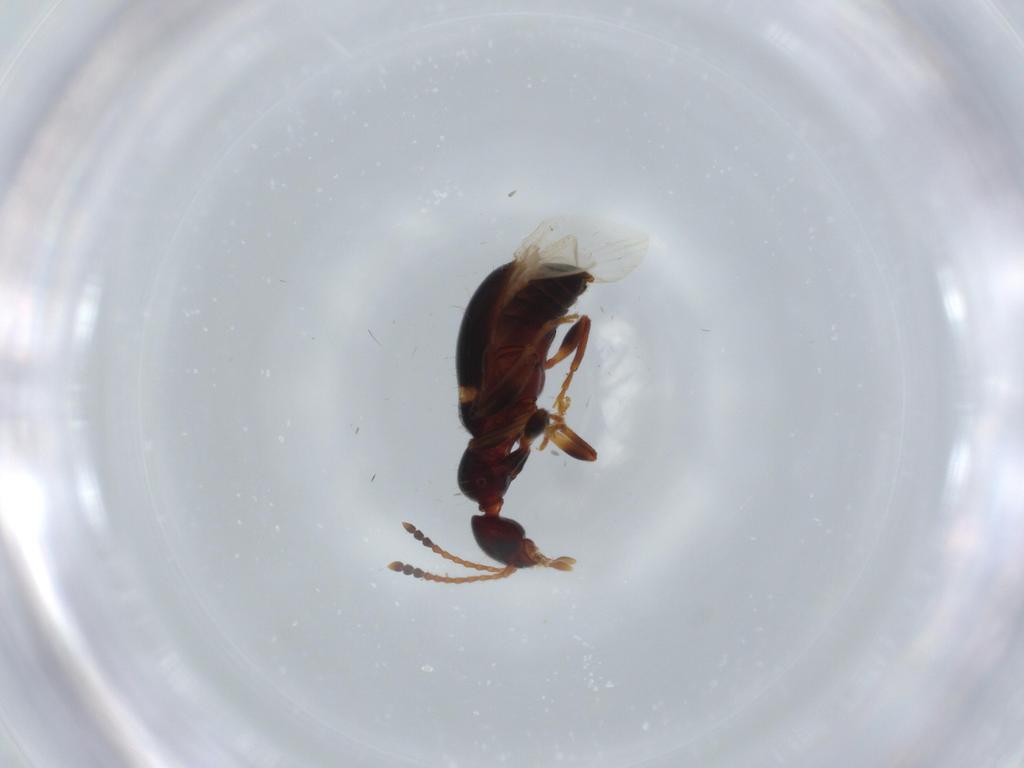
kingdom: Animalia
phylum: Arthropoda
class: Insecta
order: Coleoptera
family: Anthicidae
